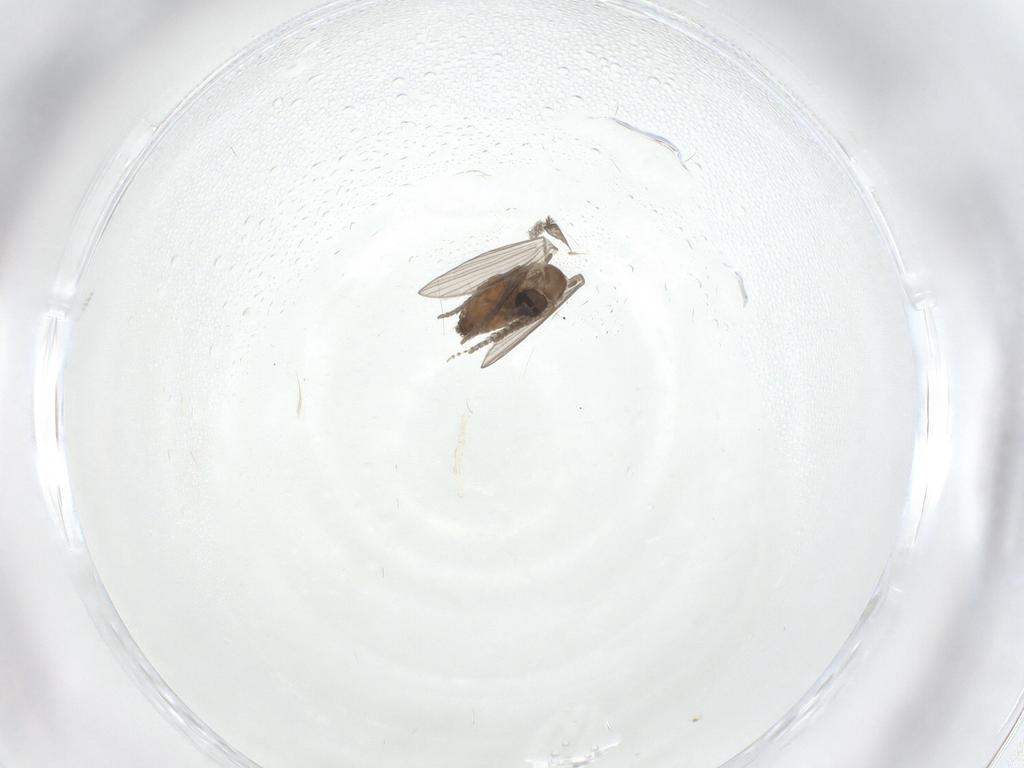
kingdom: Animalia
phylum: Arthropoda
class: Insecta
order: Diptera
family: Psychodidae
